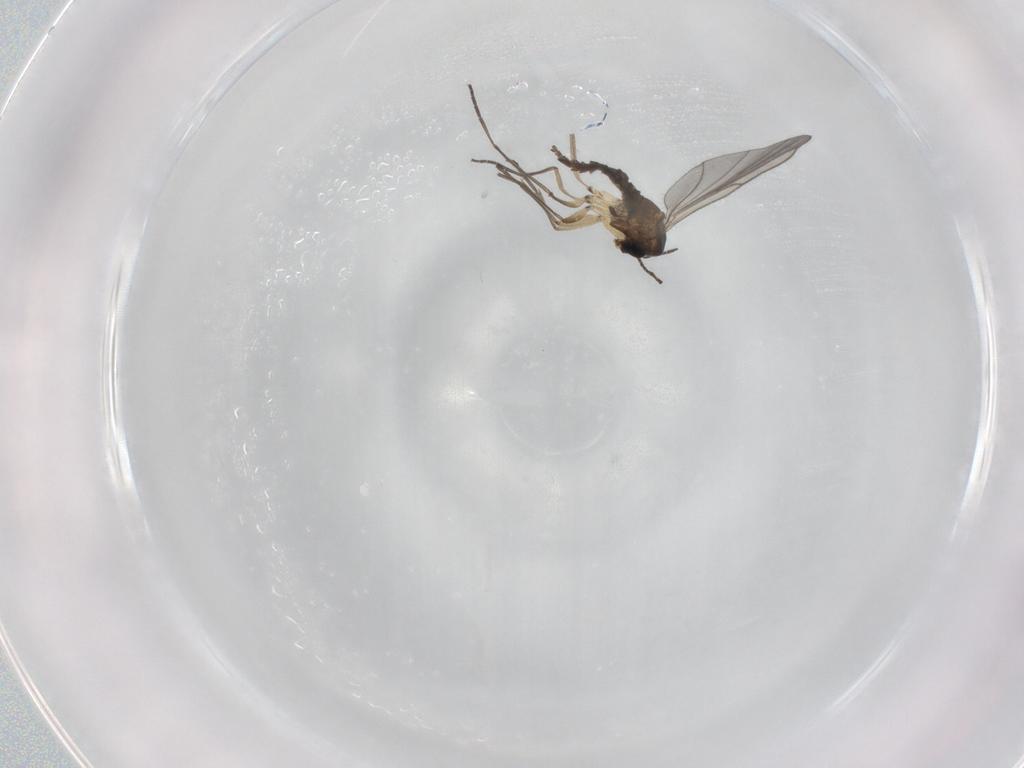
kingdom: Animalia
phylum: Arthropoda
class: Insecta
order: Diptera
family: Sciaridae
